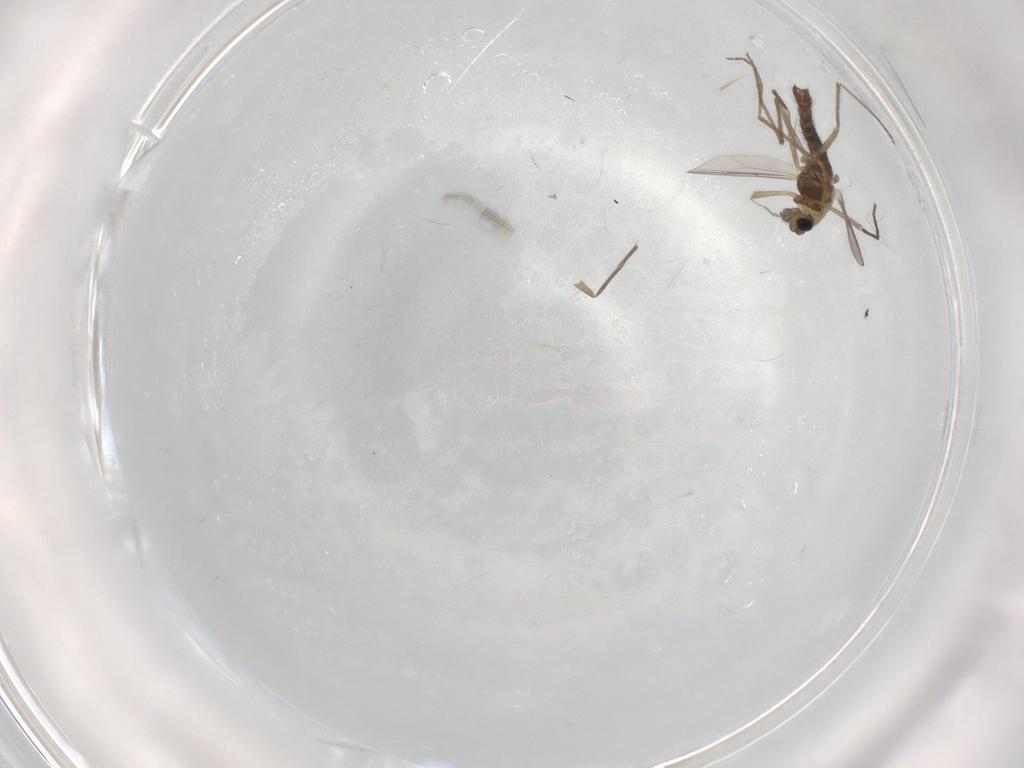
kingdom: Animalia
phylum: Arthropoda
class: Insecta
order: Diptera
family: Chironomidae
